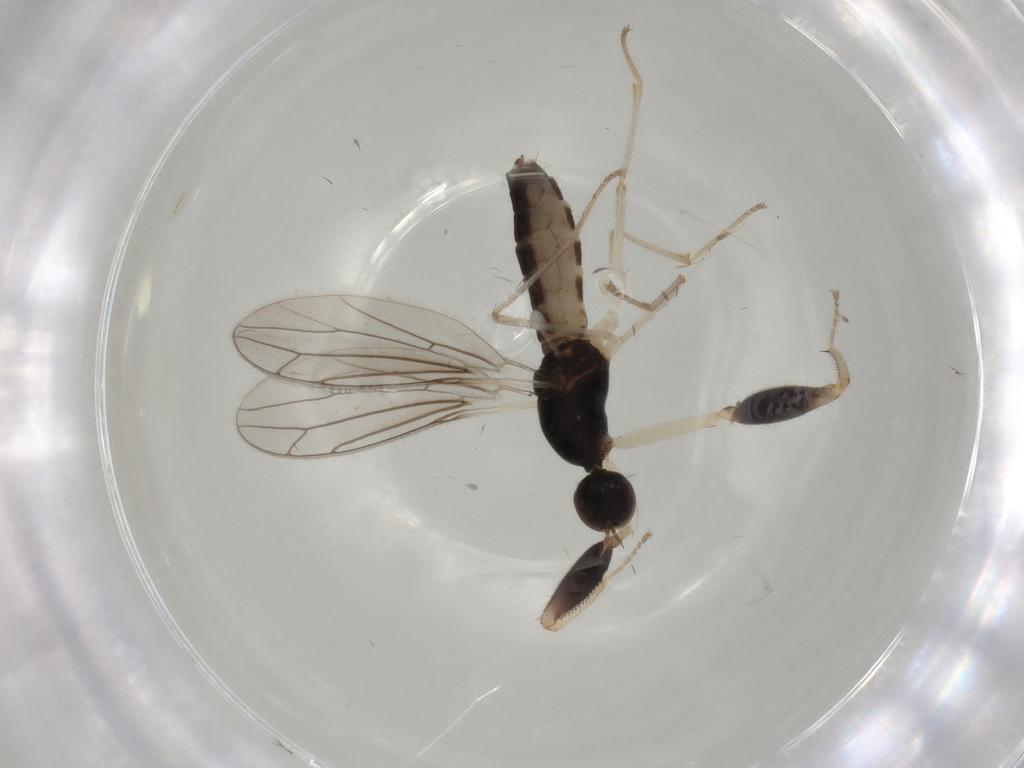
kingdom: Animalia
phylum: Arthropoda
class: Insecta
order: Diptera
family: Empididae
